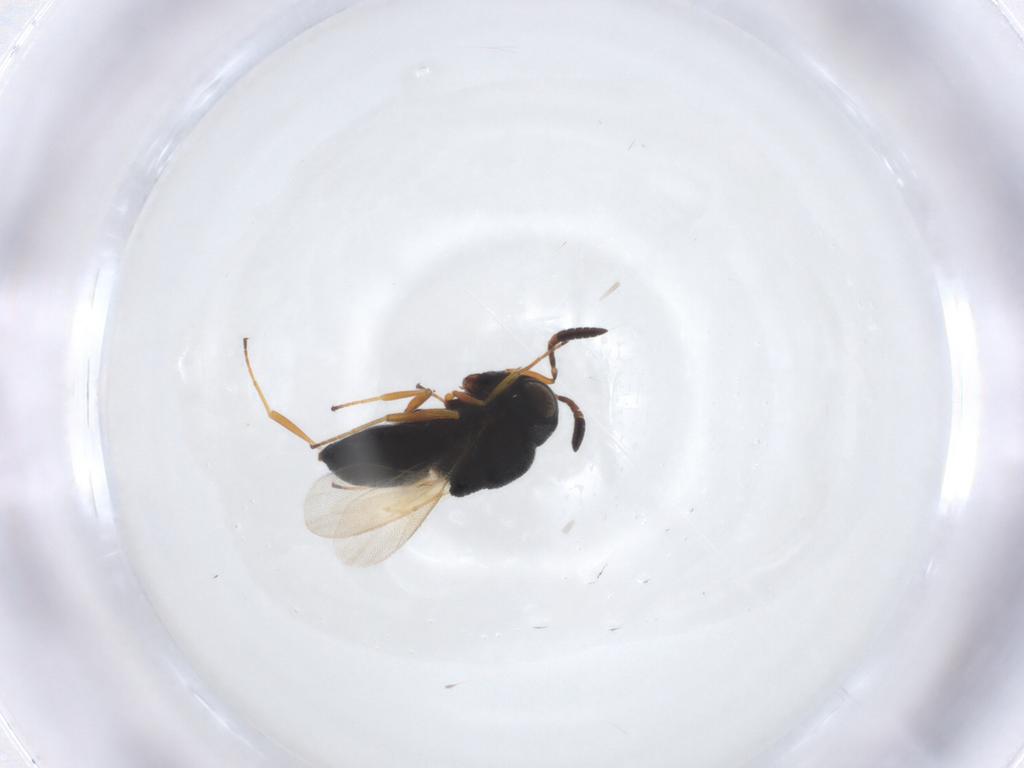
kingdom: Animalia
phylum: Arthropoda
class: Insecta
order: Hymenoptera
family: Scelionidae
